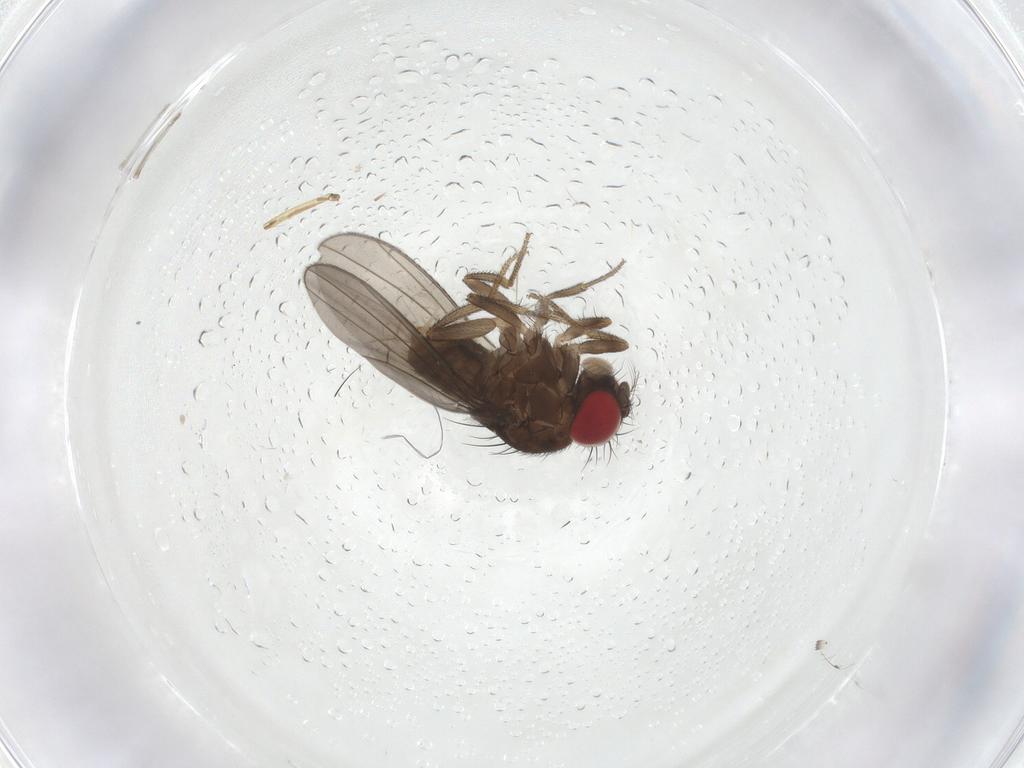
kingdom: Animalia
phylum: Arthropoda
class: Insecta
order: Diptera
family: Drosophilidae
